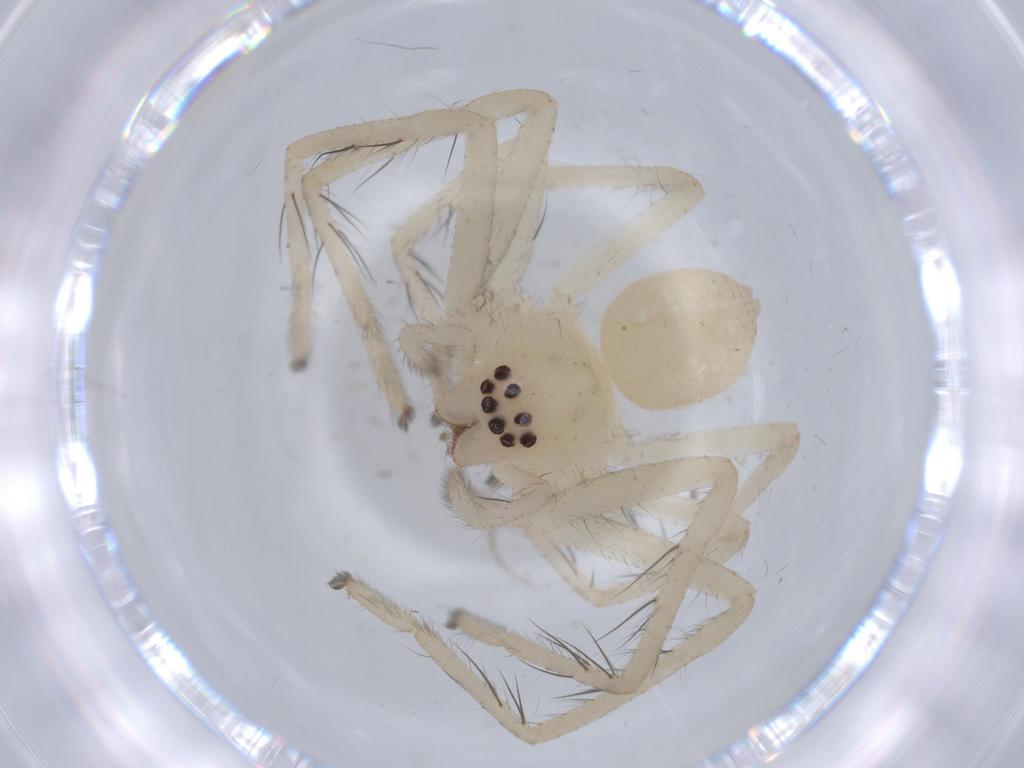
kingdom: Animalia
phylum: Arthropoda
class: Arachnida
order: Araneae
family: Sparassidae
